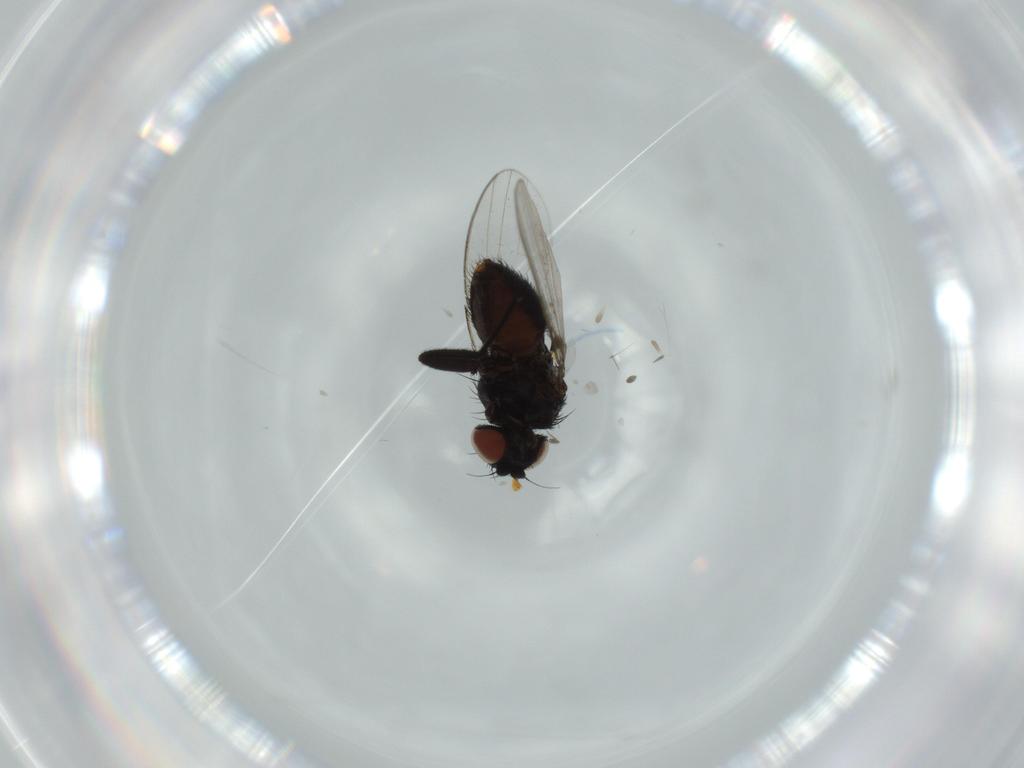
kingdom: Animalia
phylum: Arthropoda
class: Insecta
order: Diptera
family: Milichiidae
